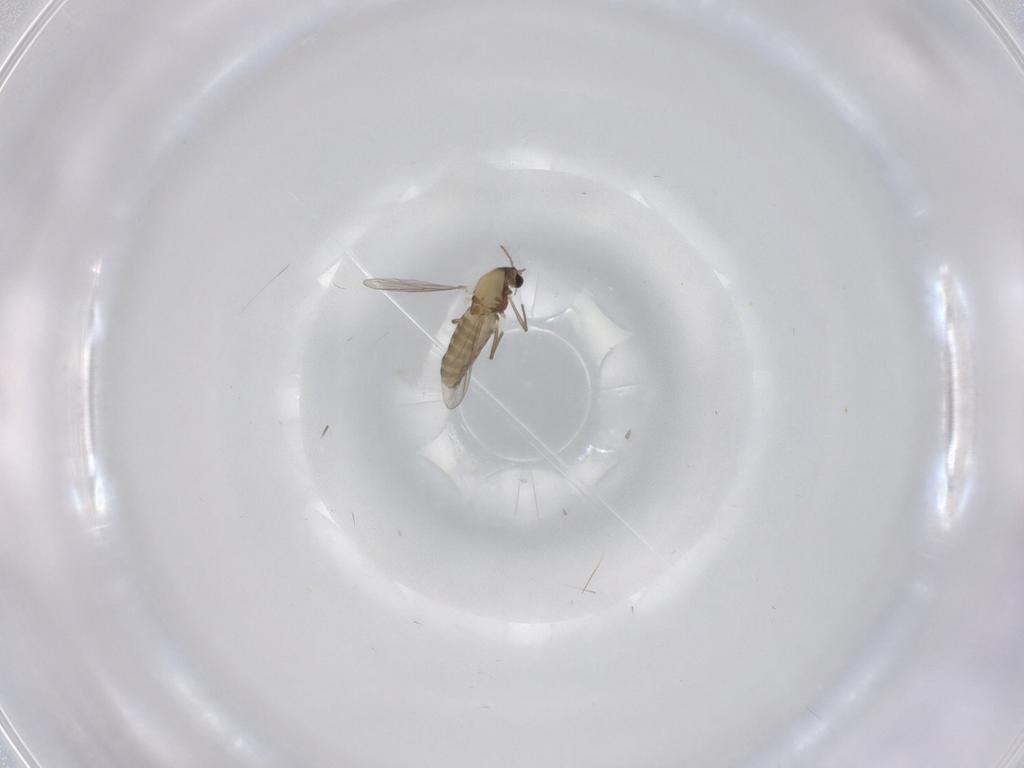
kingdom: Animalia
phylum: Arthropoda
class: Insecta
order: Diptera
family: Chironomidae
